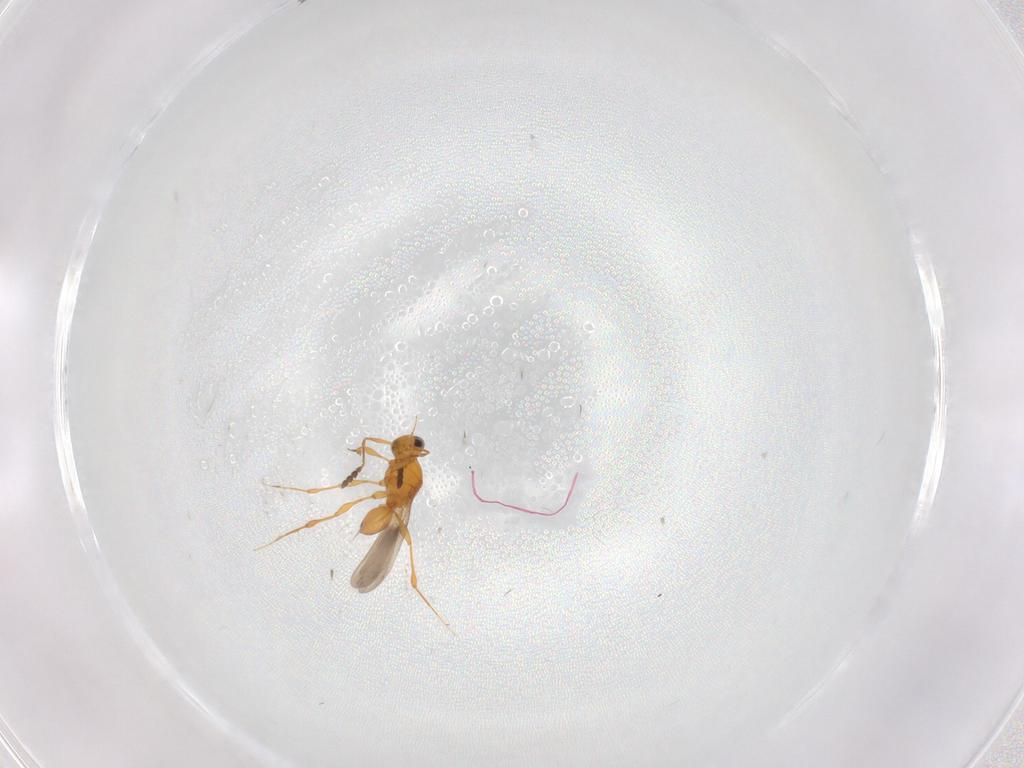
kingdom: Animalia
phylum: Arthropoda
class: Insecta
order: Hymenoptera
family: Platygastridae
